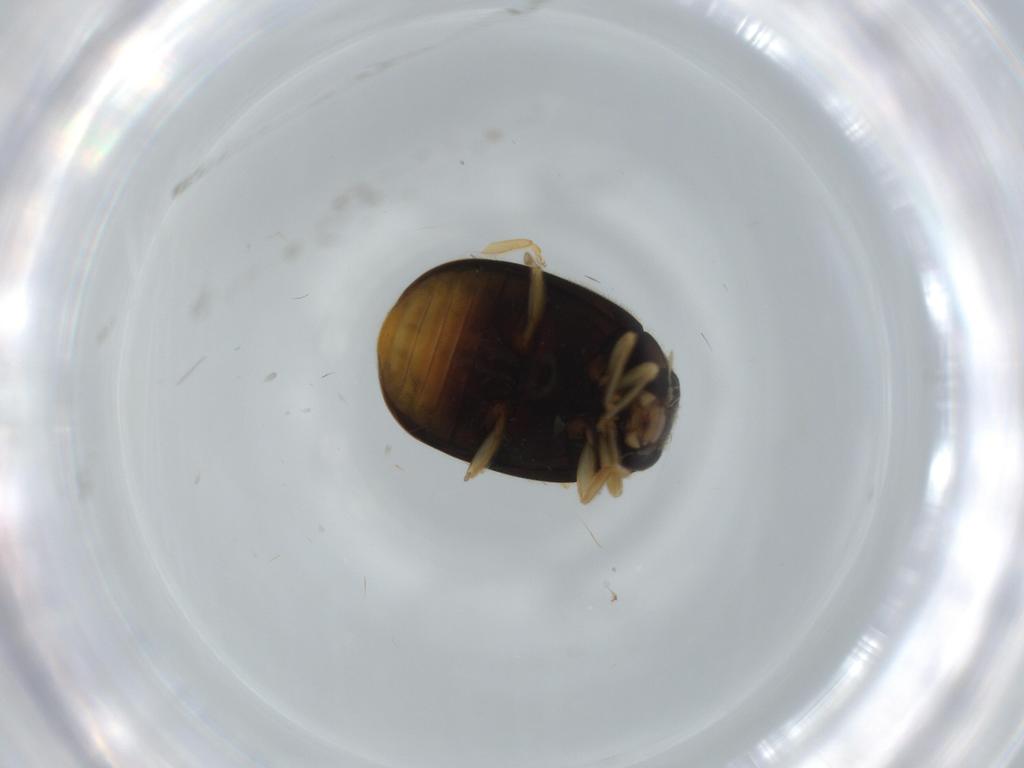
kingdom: Animalia
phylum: Arthropoda
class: Insecta
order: Coleoptera
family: Coccinellidae
